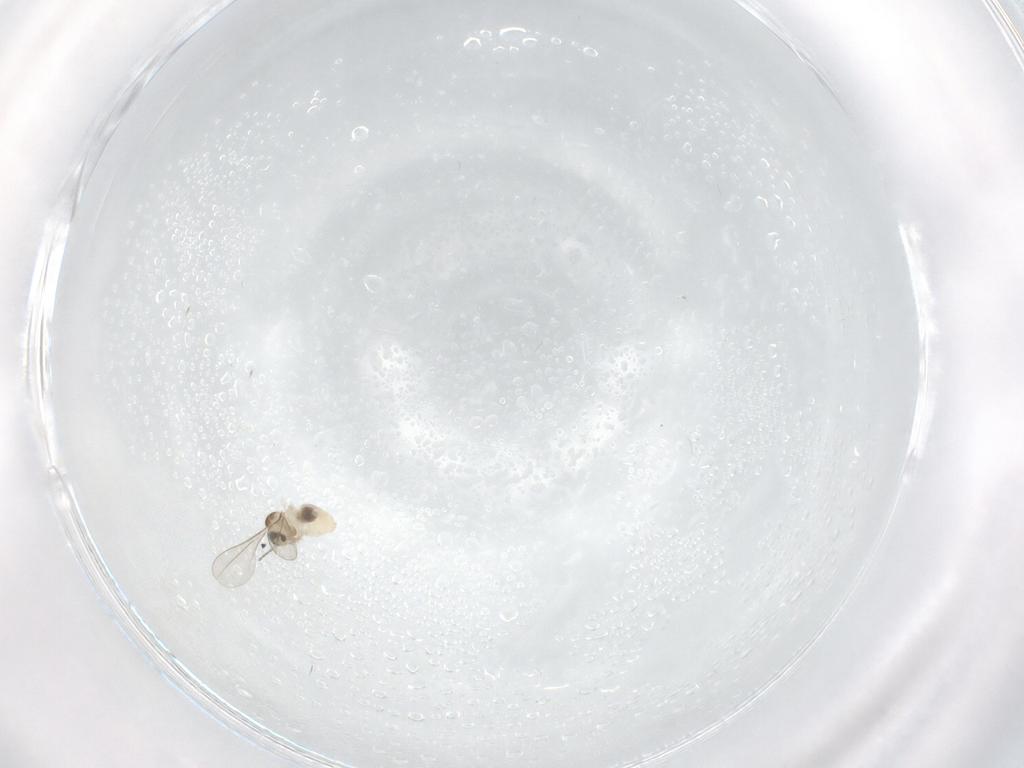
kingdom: Animalia
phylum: Arthropoda
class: Insecta
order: Diptera
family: Cecidomyiidae
